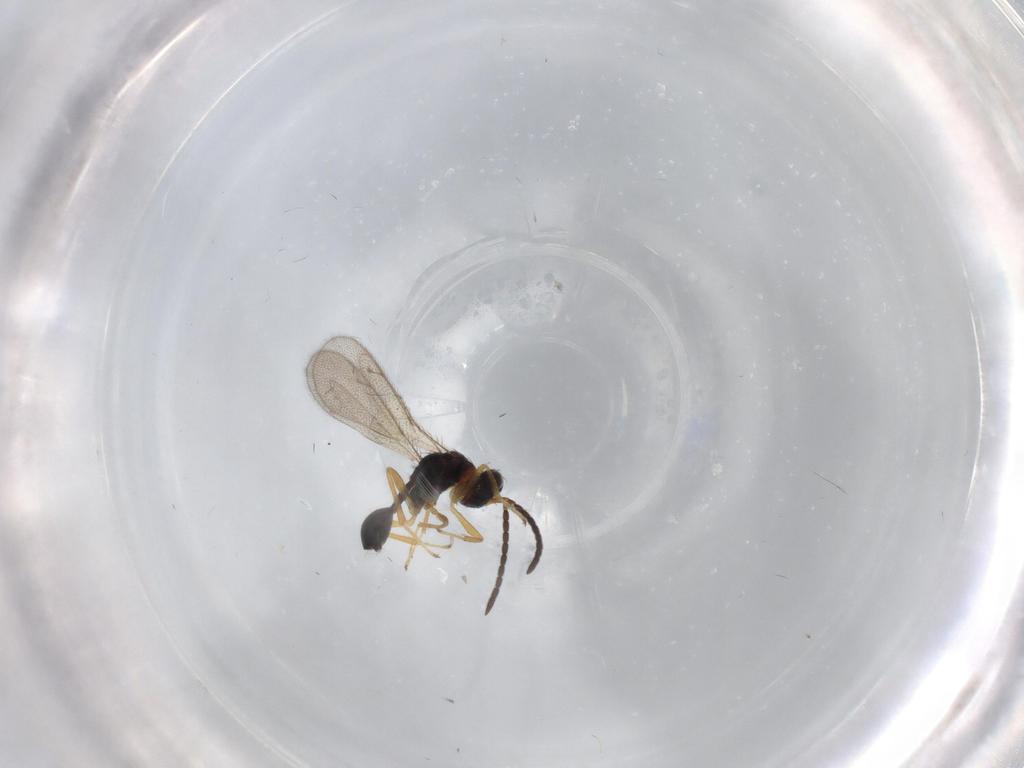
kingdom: Animalia
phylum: Arthropoda
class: Insecta
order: Hymenoptera
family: Diparidae
